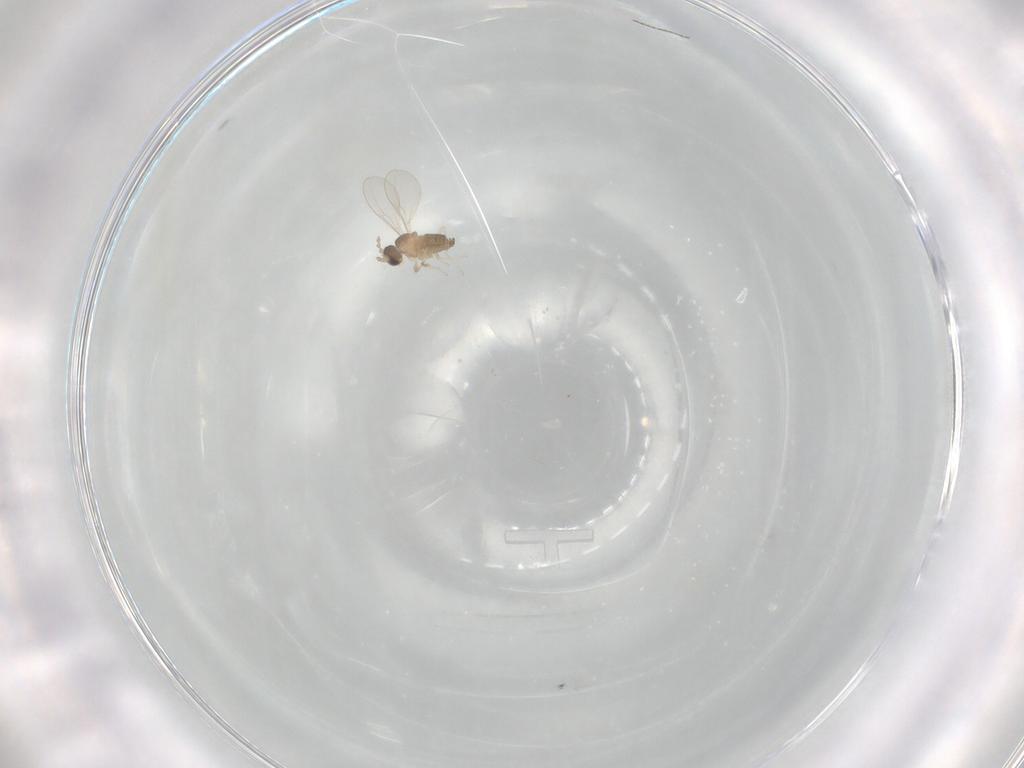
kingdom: Animalia
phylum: Arthropoda
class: Insecta
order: Diptera
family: Cecidomyiidae
